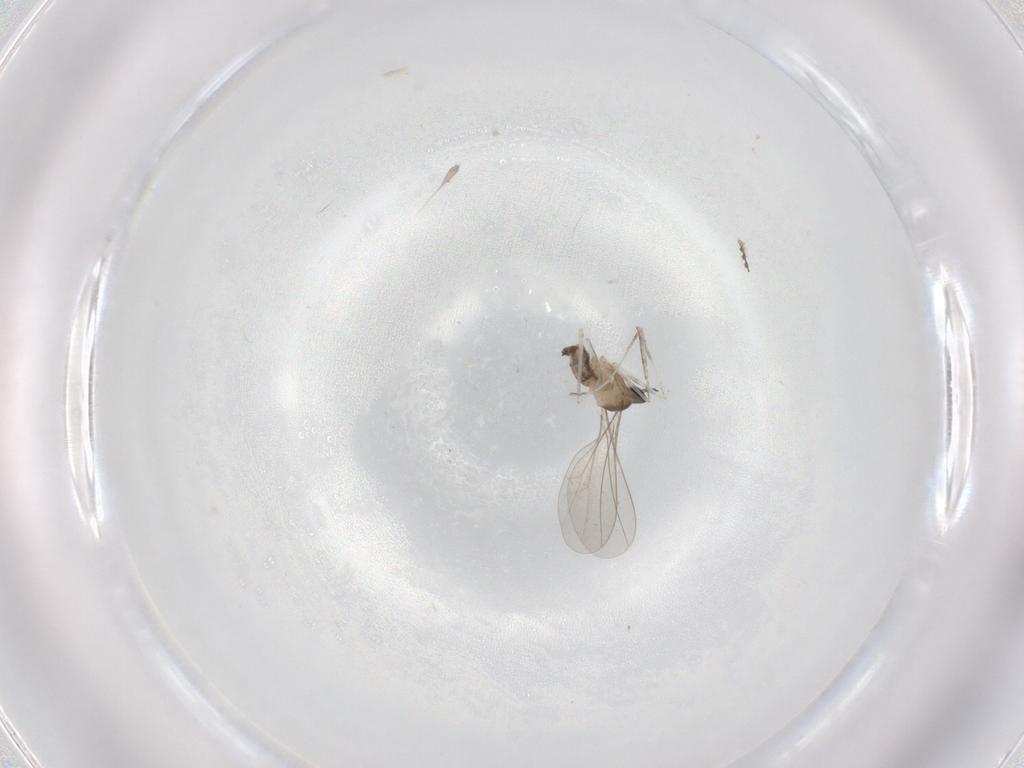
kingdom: Animalia
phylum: Arthropoda
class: Insecta
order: Diptera
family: Cecidomyiidae
